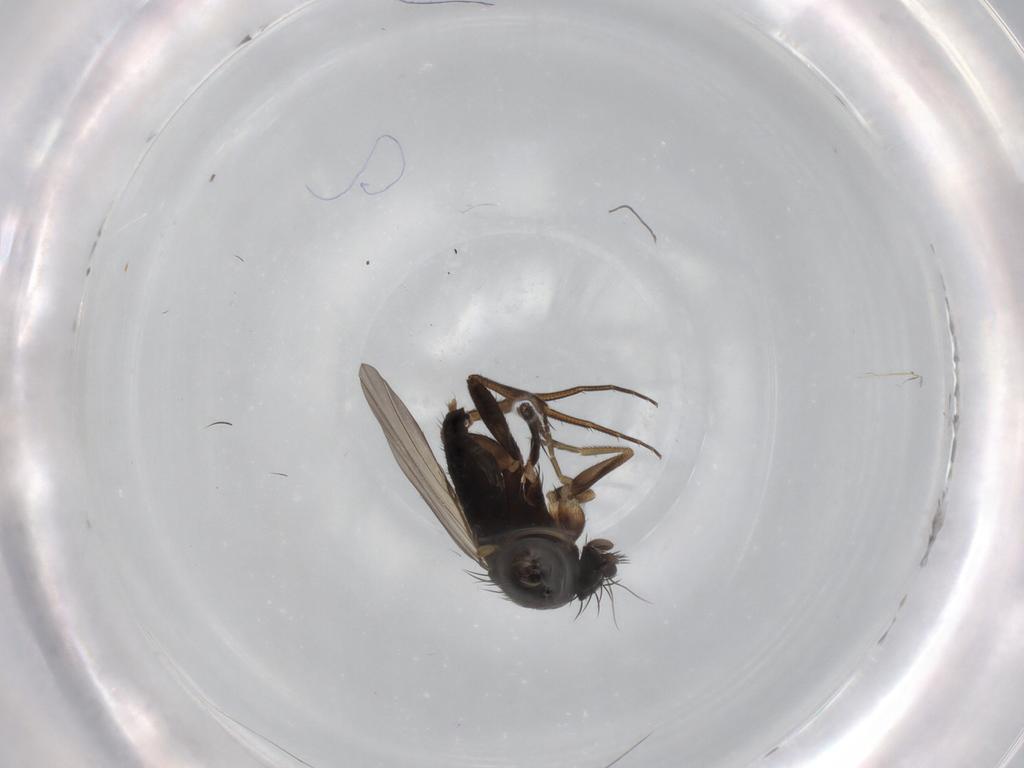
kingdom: Animalia
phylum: Arthropoda
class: Insecta
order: Diptera
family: Phoridae
